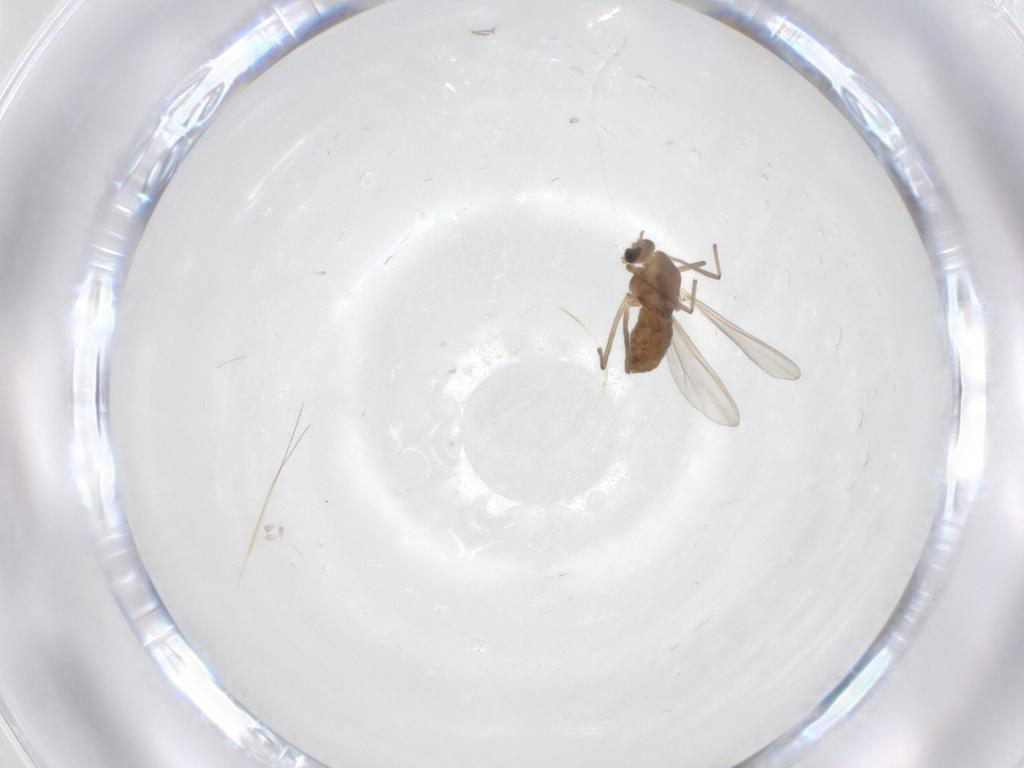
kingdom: Animalia
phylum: Arthropoda
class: Insecta
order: Diptera
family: Chironomidae
